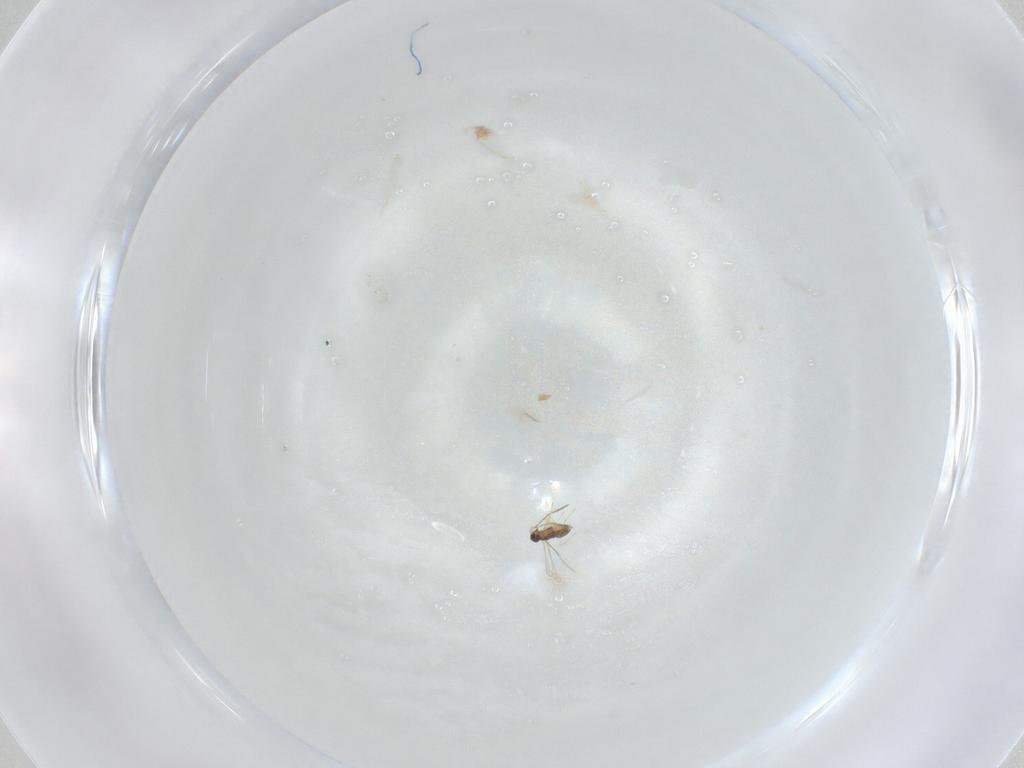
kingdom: Animalia
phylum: Arthropoda
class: Insecta
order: Hymenoptera
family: Mymaridae
